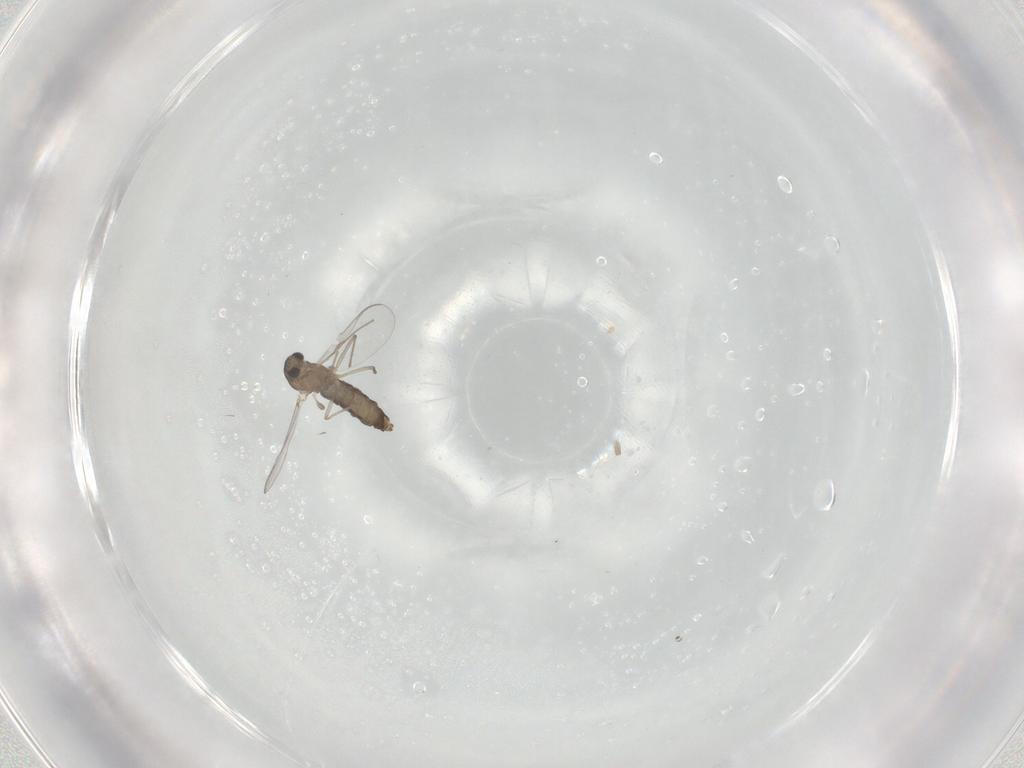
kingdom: Animalia
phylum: Arthropoda
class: Insecta
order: Diptera
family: Chironomidae
